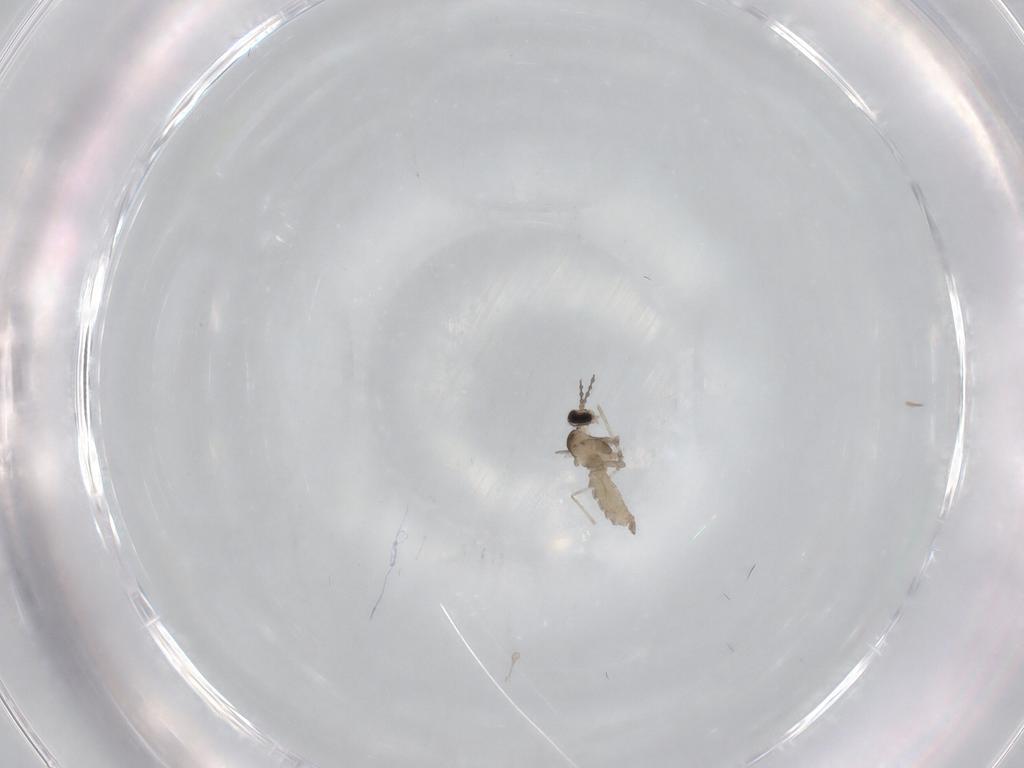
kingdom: Animalia
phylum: Arthropoda
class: Insecta
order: Diptera
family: Cecidomyiidae
